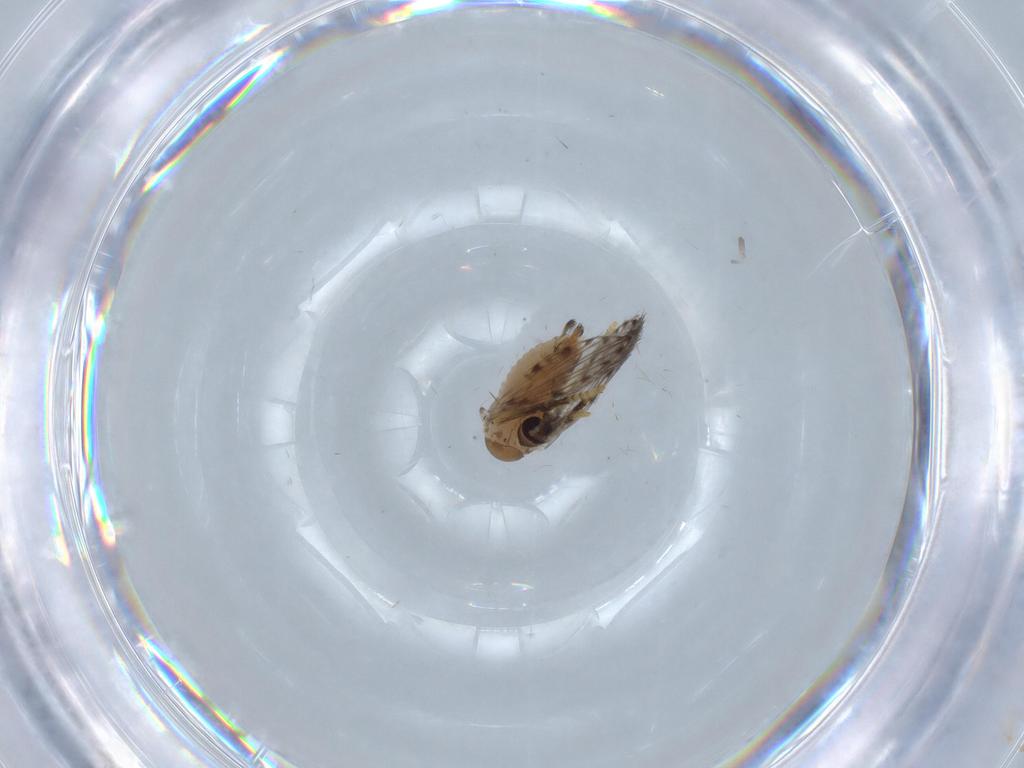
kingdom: Animalia
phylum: Arthropoda
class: Insecta
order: Diptera
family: Psychodidae
